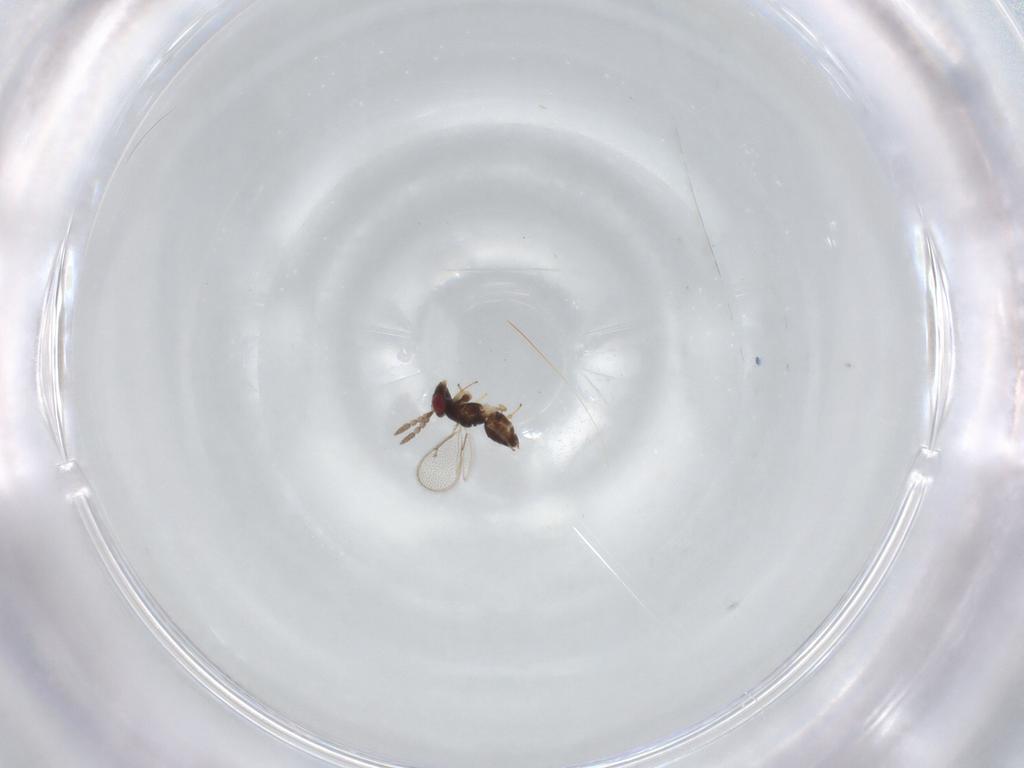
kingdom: Animalia
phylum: Arthropoda
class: Insecta
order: Hymenoptera
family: Eulophidae
